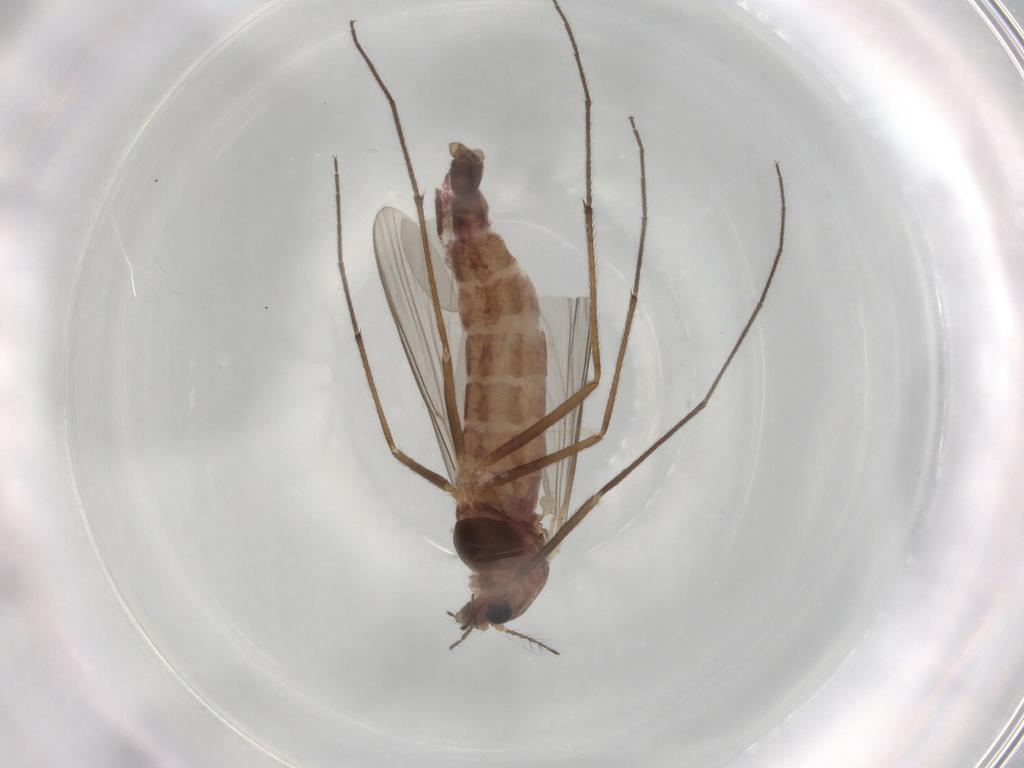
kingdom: Animalia
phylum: Arthropoda
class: Insecta
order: Diptera
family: Chironomidae
